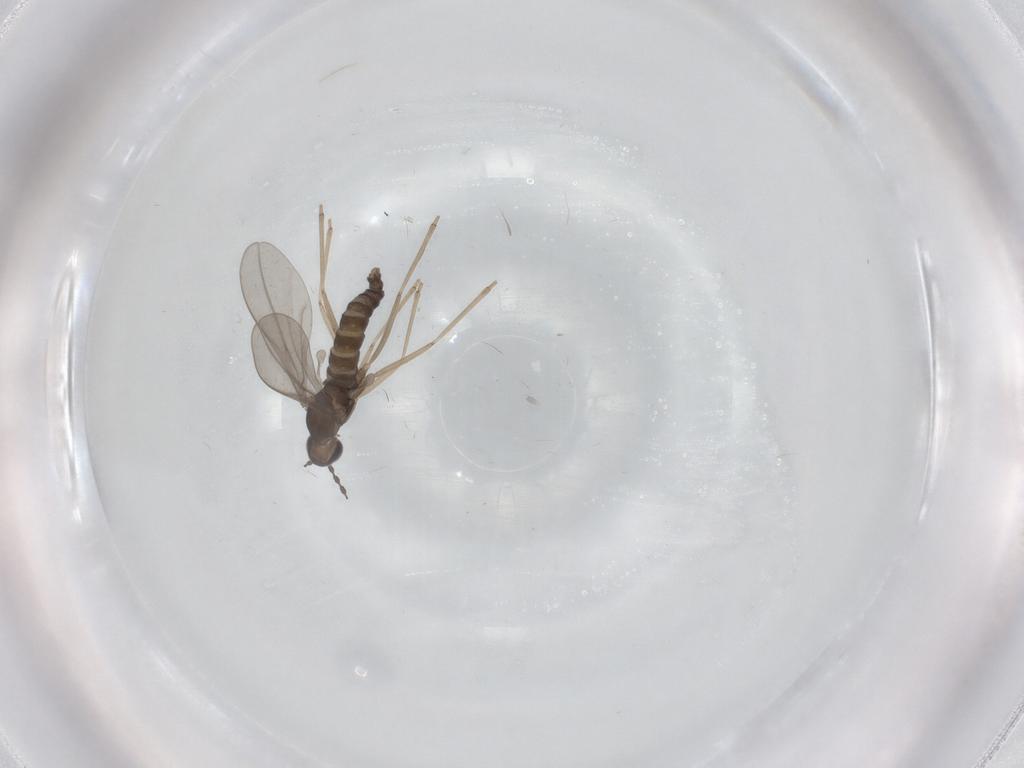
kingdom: Animalia
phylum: Arthropoda
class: Insecta
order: Diptera
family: Cecidomyiidae
